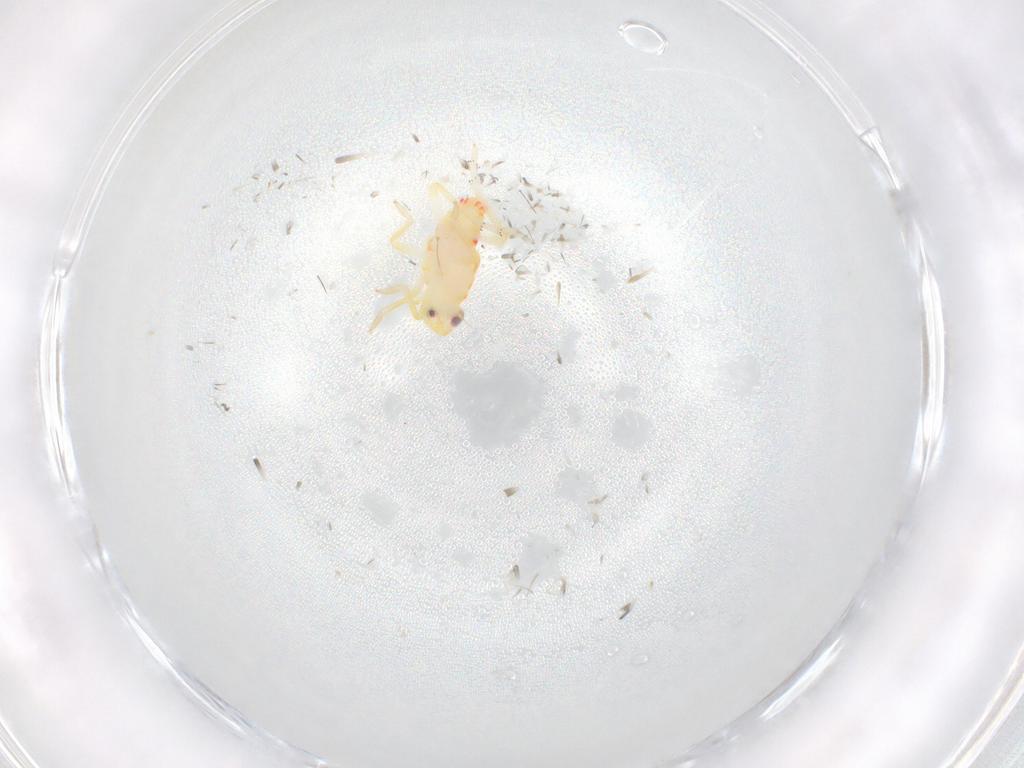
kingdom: Animalia
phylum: Arthropoda
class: Insecta
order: Hemiptera
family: Tropiduchidae
